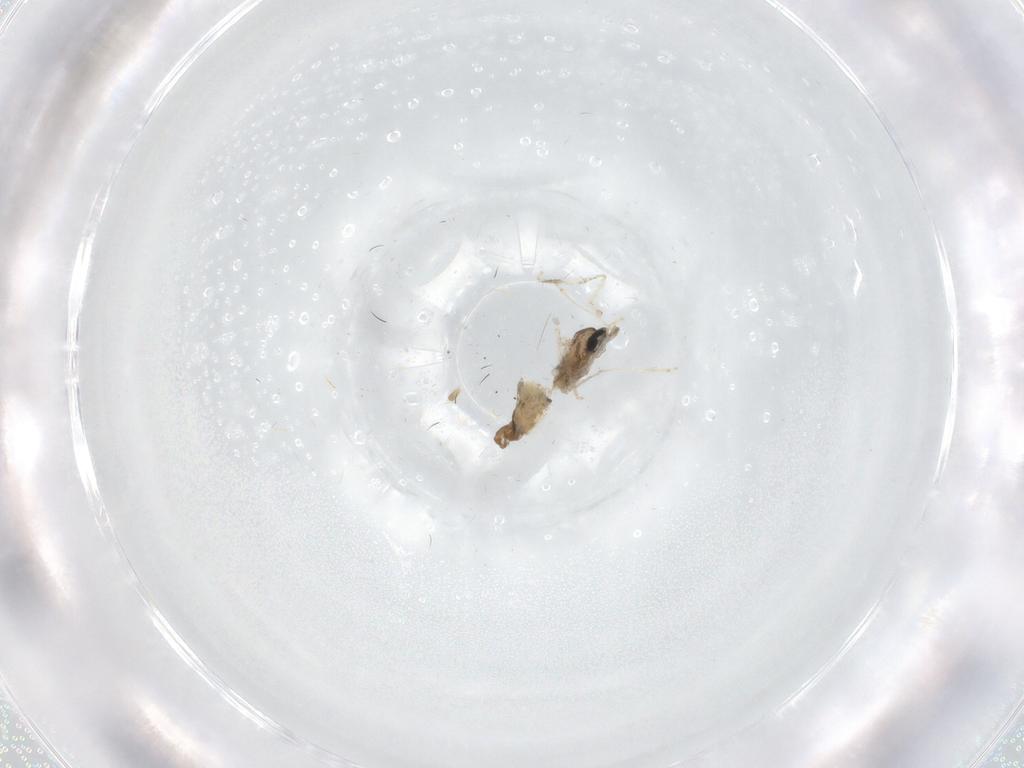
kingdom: Animalia
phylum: Arthropoda
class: Insecta
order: Diptera
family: Cecidomyiidae
